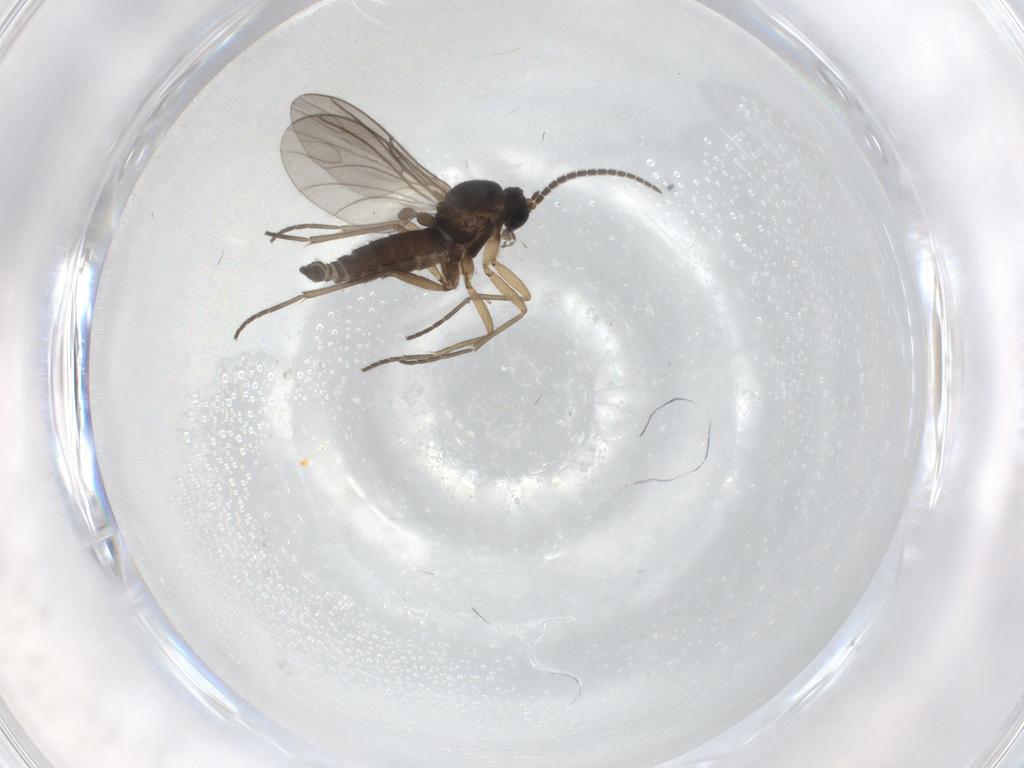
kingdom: Animalia
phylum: Arthropoda
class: Insecta
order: Diptera
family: Sciaridae
